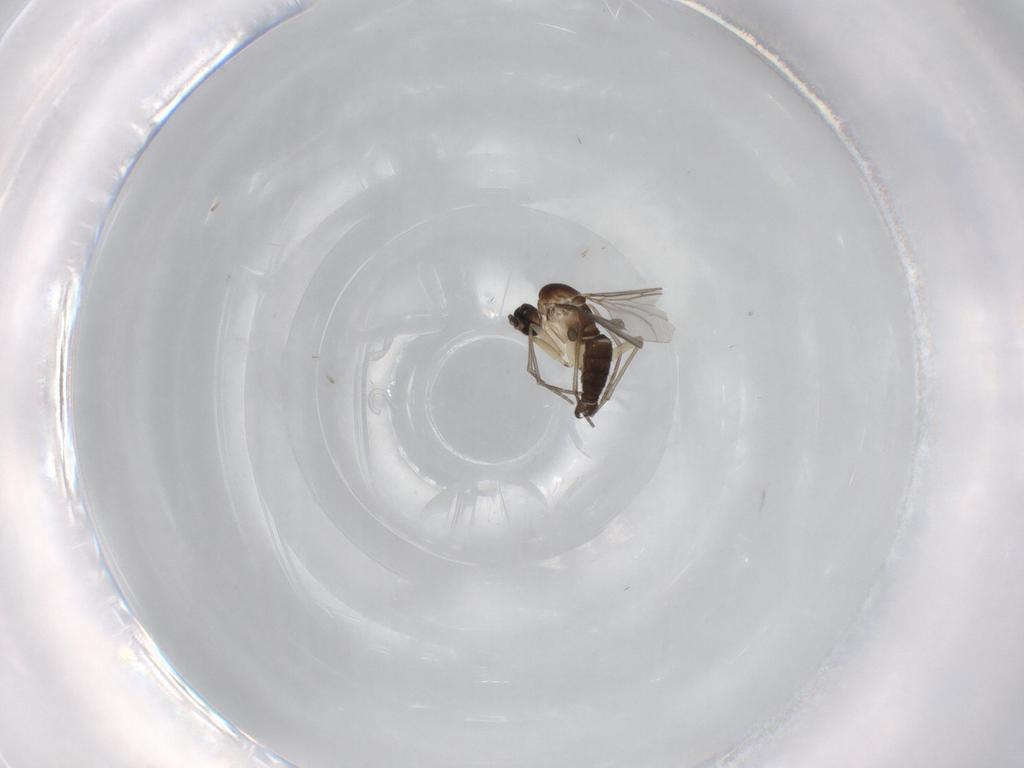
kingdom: Animalia
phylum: Arthropoda
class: Insecta
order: Diptera
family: Sciaridae
